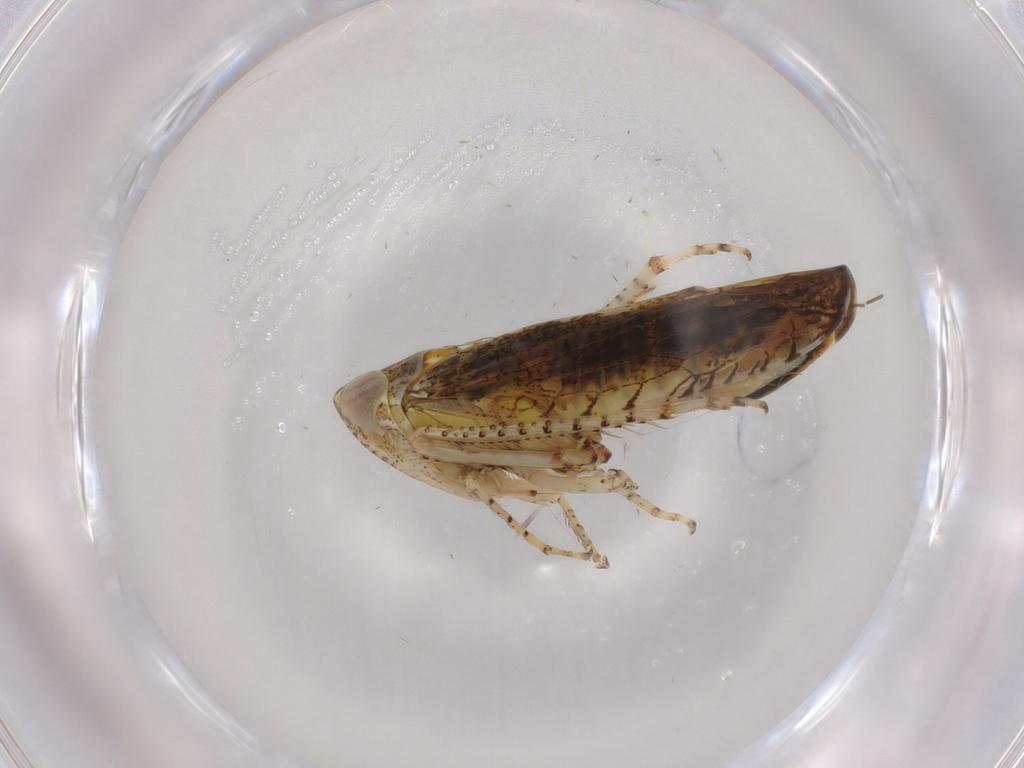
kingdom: Animalia
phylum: Arthropoda
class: Insecta
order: Hemiptera
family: Miridae
